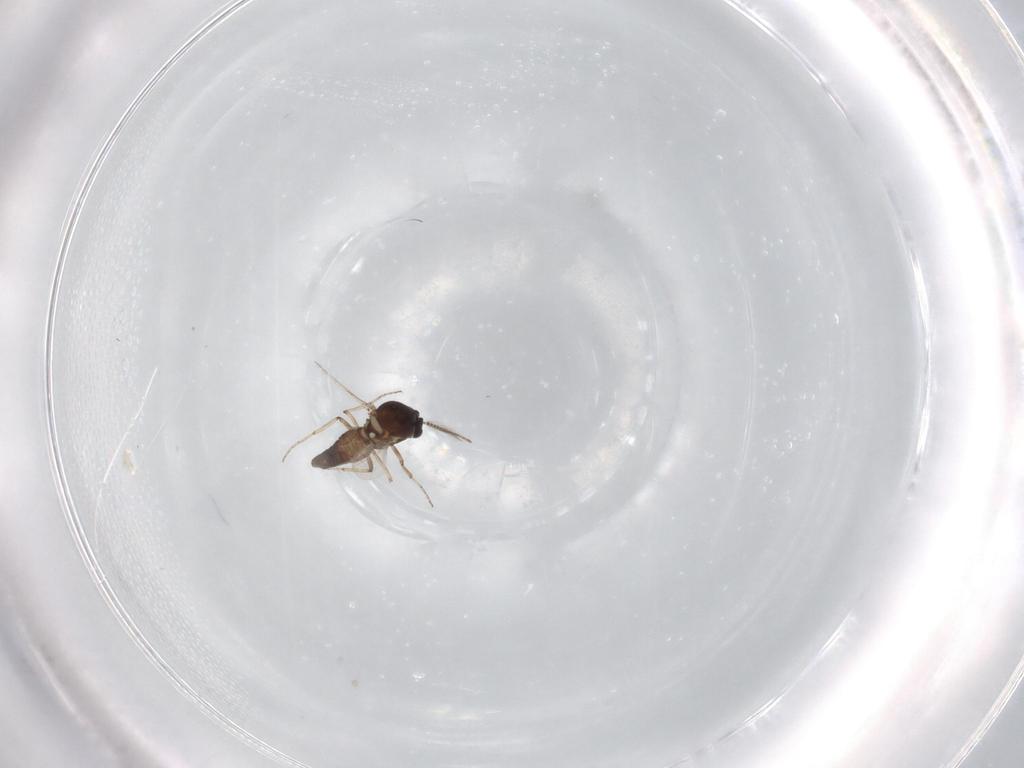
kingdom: Animalia
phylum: Arthropoda
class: Insecta
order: Diptera
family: Ceratopogonidae
